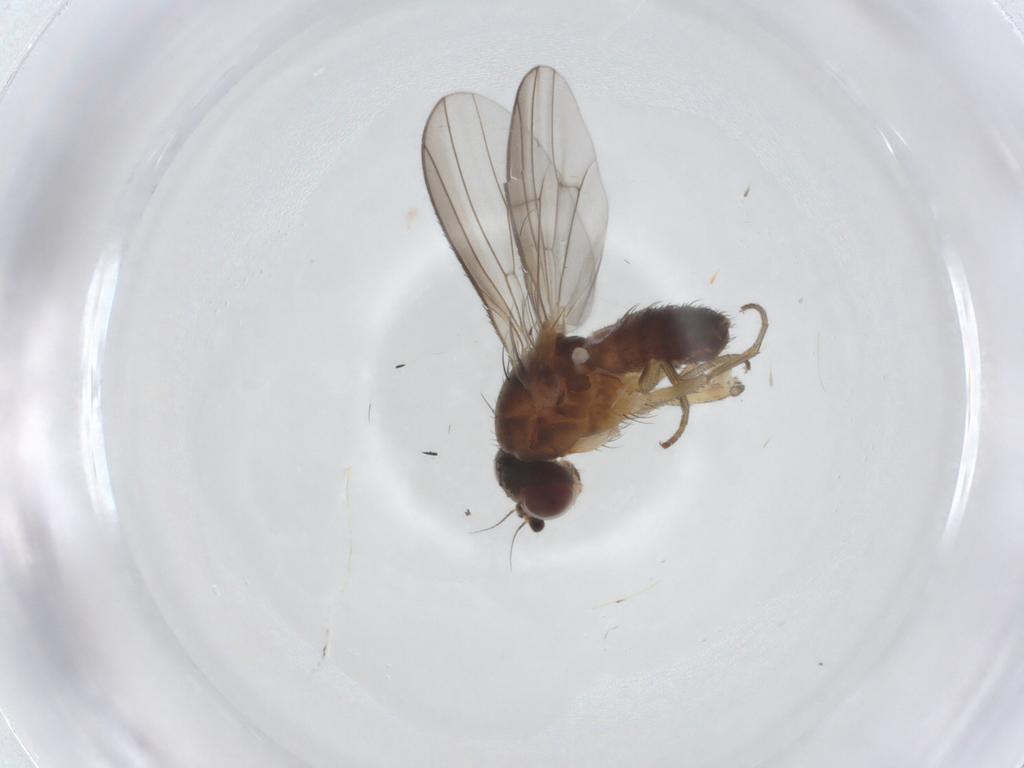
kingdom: Animalia
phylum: Arthropoda
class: Insecta
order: Diptera
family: Heleomyzidae
